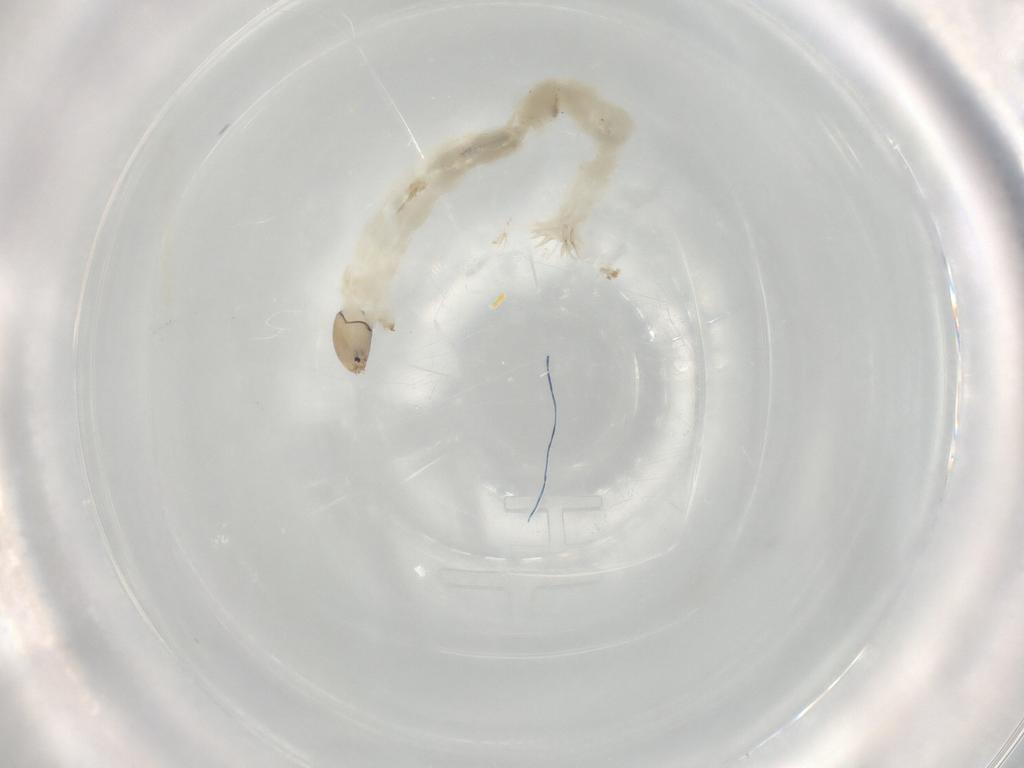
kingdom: Animalia
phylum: Arthropoda
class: Insecta
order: Diptera
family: Chironomidae
